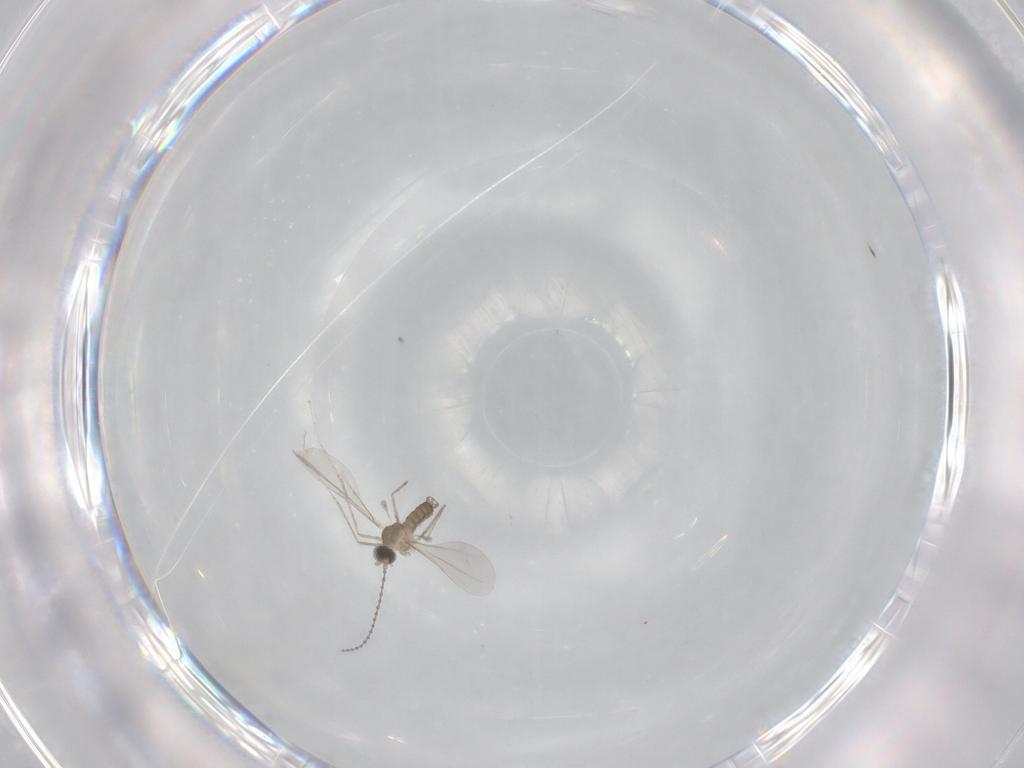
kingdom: Animalia
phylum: Arthropoda
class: Insecta
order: Diptera
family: Cecidomyiidae
